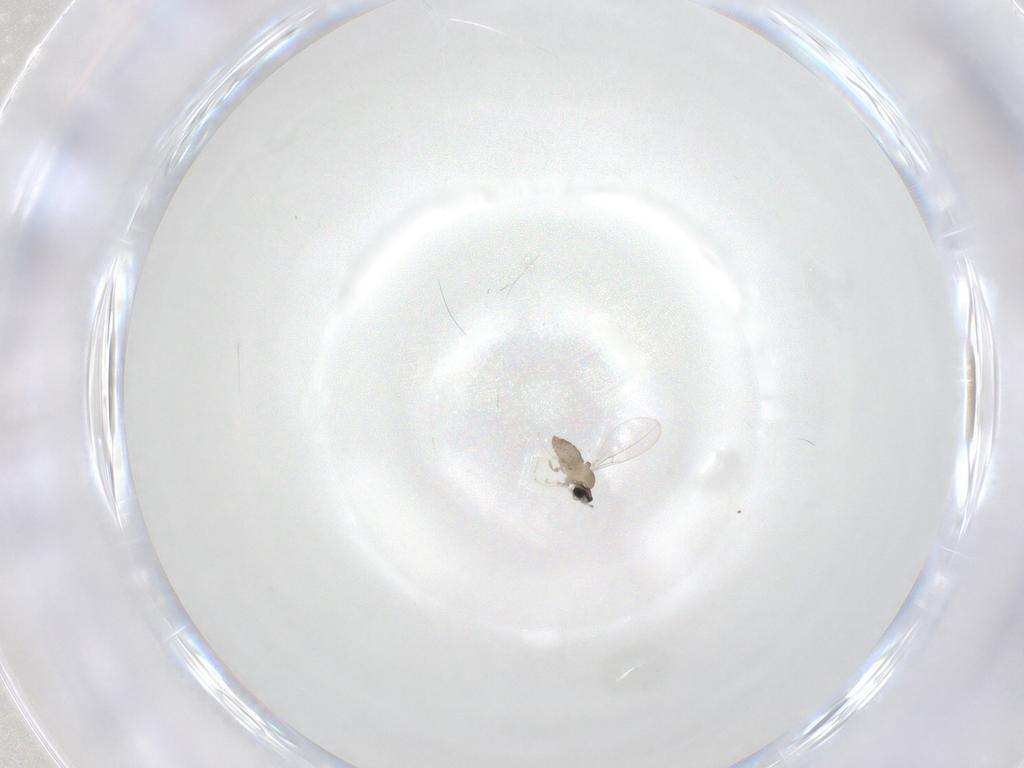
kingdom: Animalia
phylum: Arthropoda
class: Insecta
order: Diptera
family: Cecidomyiidae
